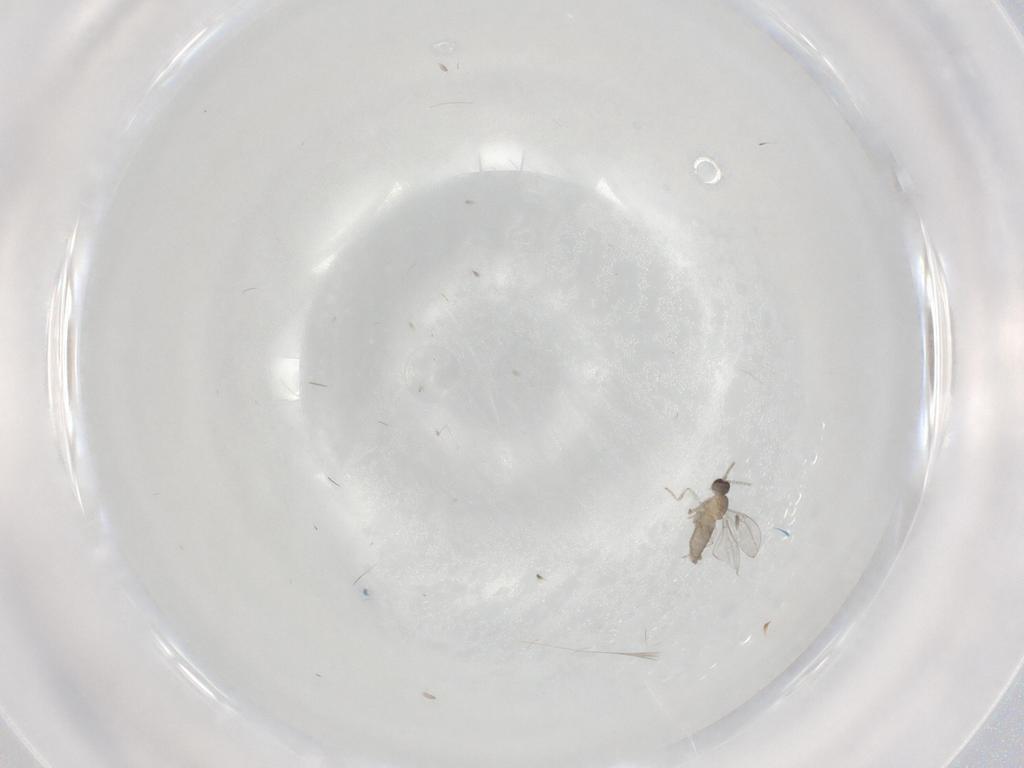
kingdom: Animalia
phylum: Arthropoda
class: Insecta
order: Diptera
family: Cecidomyiidae
